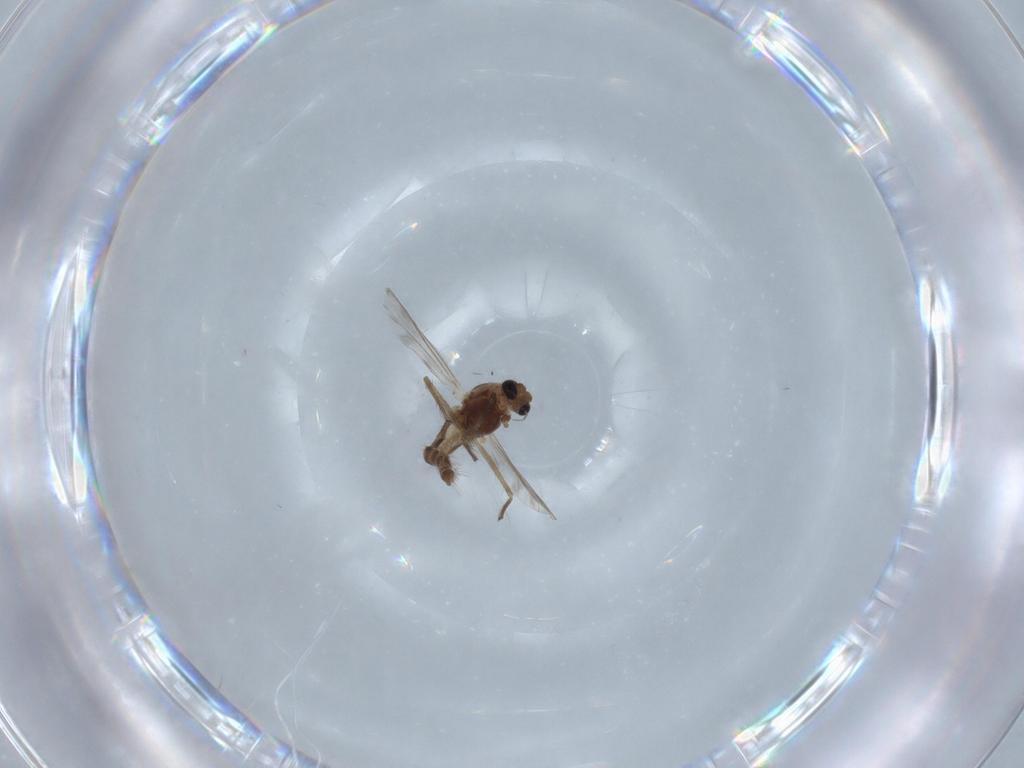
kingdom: Animalia
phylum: Arthropoda
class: Insecta
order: Diptera
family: Chironomidae
